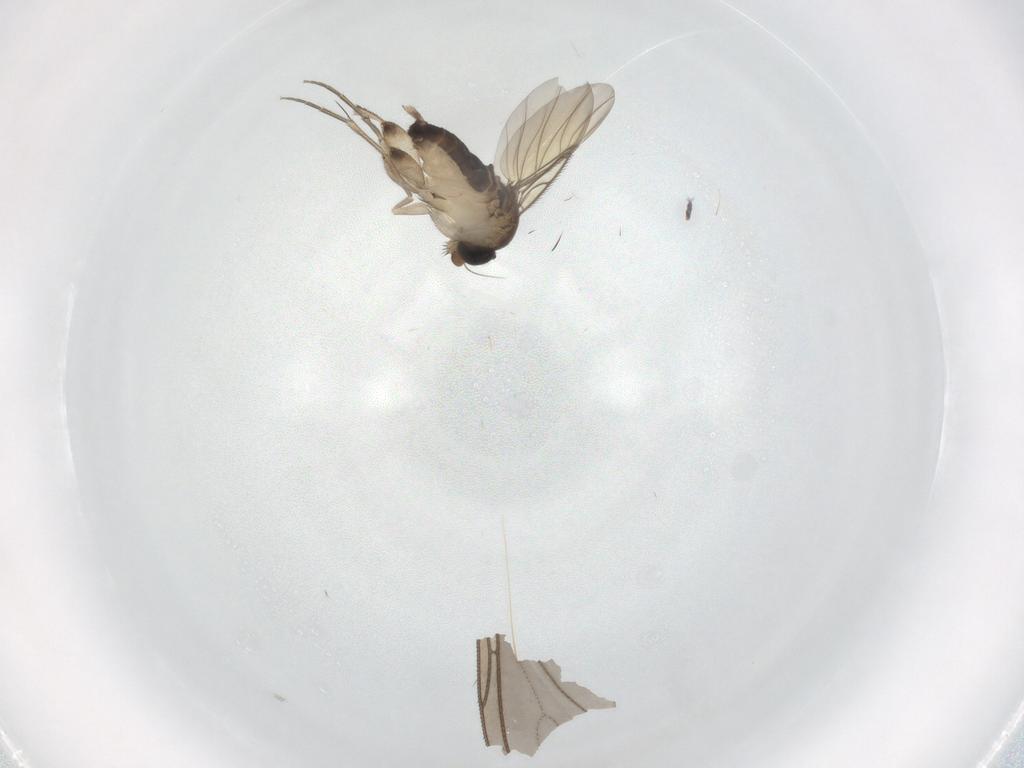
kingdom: Animalia
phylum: Arthropoda
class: Insecta
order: Diptera
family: Phoridae
